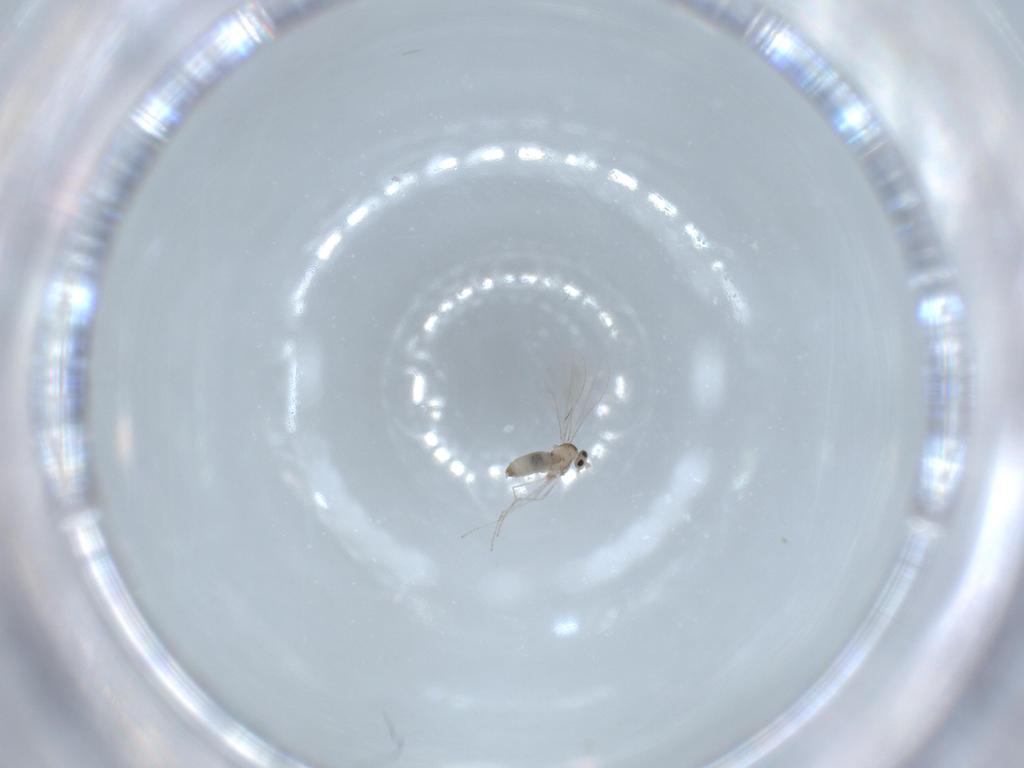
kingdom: Animalia
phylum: Arthropoda
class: Insecta
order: Diptera
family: Cecidomyiidae
